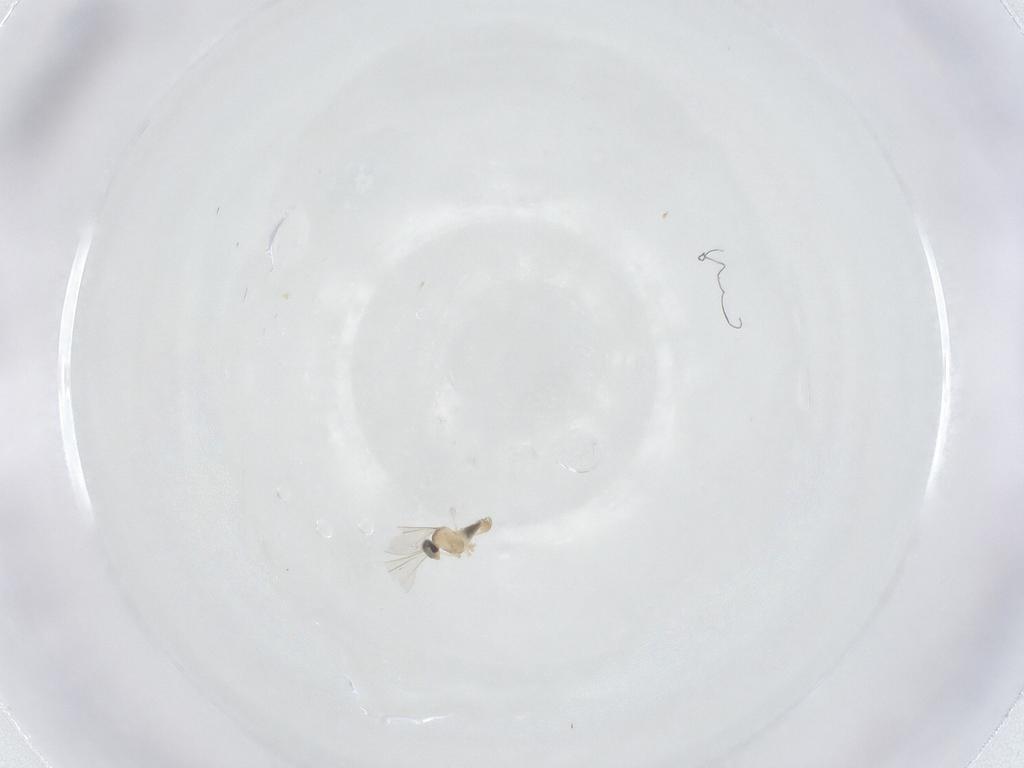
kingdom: Animalia
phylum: Arthropoda
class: Insecta
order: Diptera
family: Cecidomyiidae
